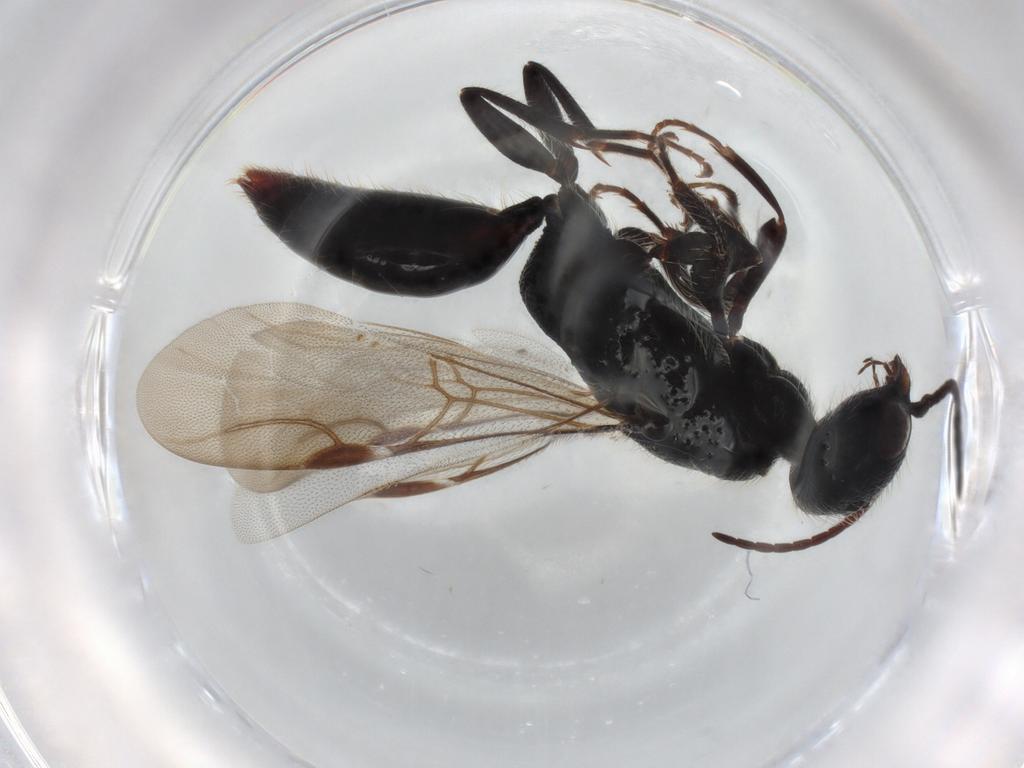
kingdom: Animalia
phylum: Arthropoda
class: Insecta
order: Hymenoptera
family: Bethylidae
